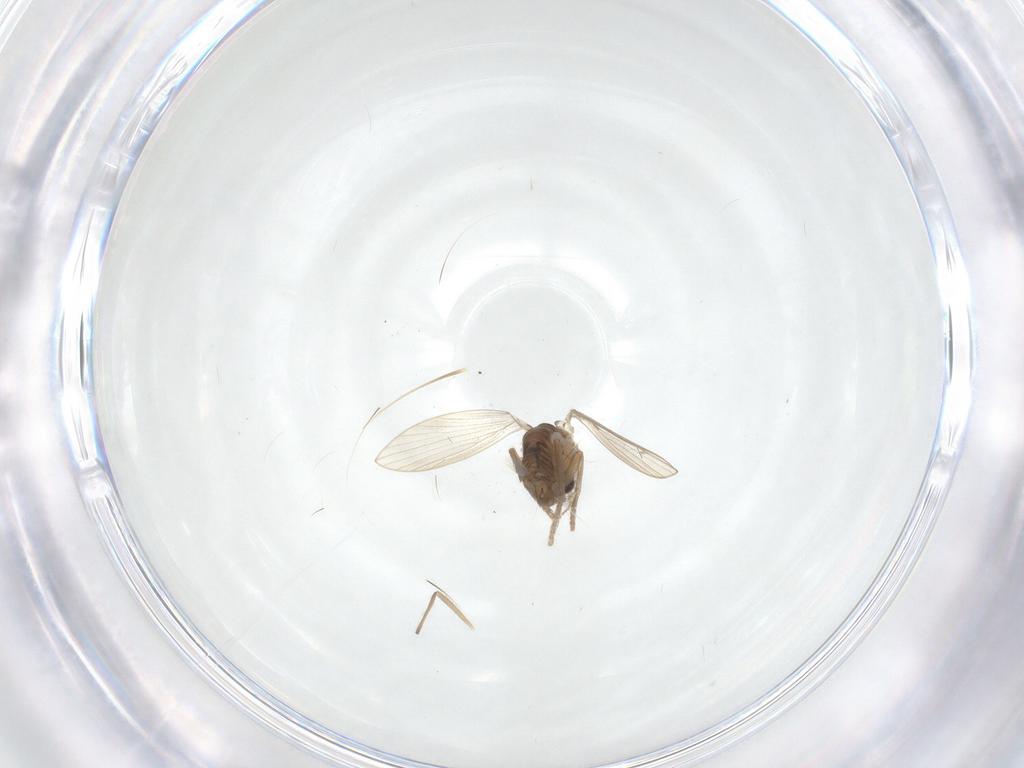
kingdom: Animalia
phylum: Arthropoda
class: Insecta
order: Diptera
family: Psychodidae
